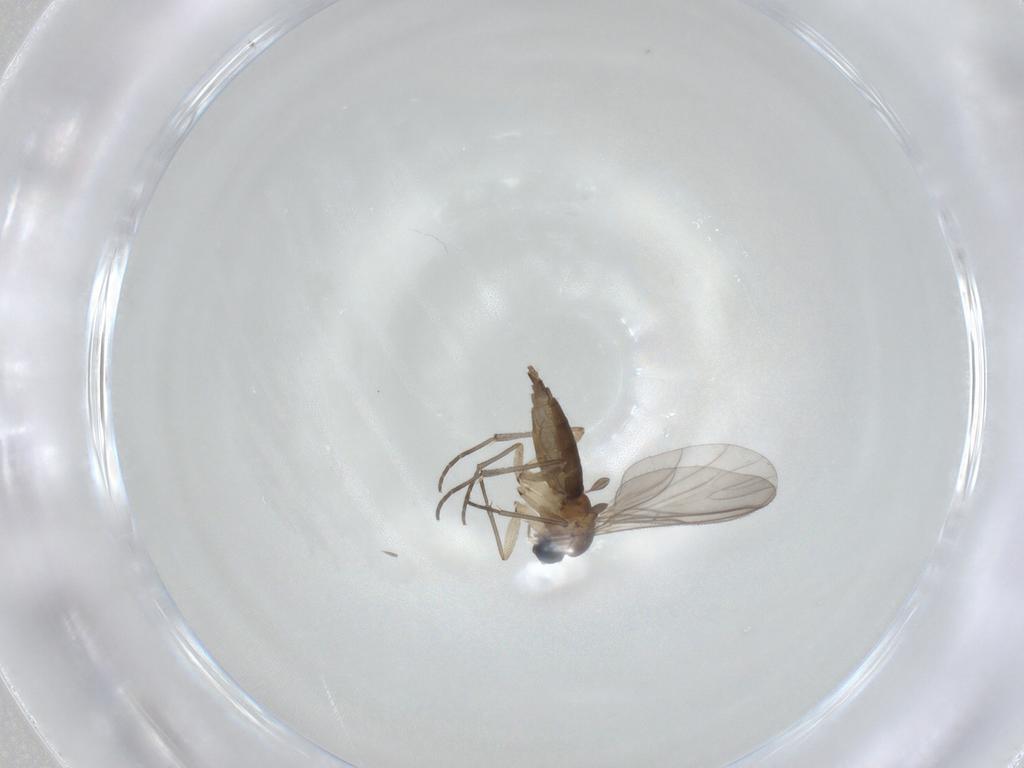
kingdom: Animalia
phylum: Arthropoda
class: Insecta
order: Diptera
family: Sciaridae
